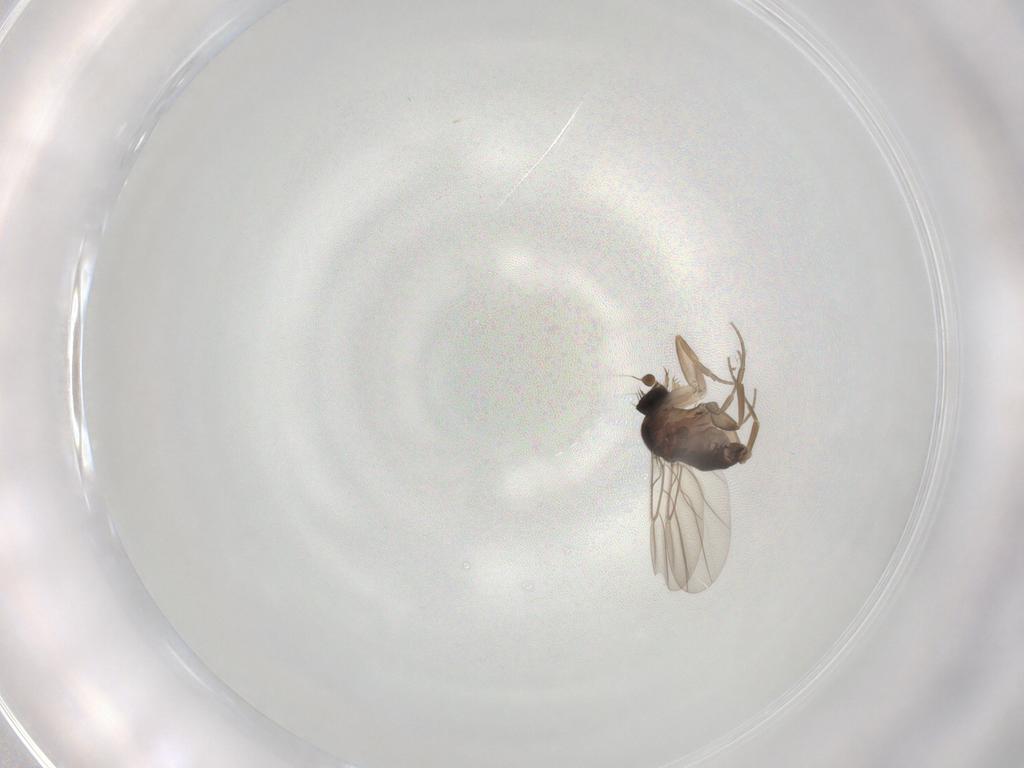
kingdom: Animalia
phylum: Arthropoda
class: Insecta
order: Diptera
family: Phoridae
